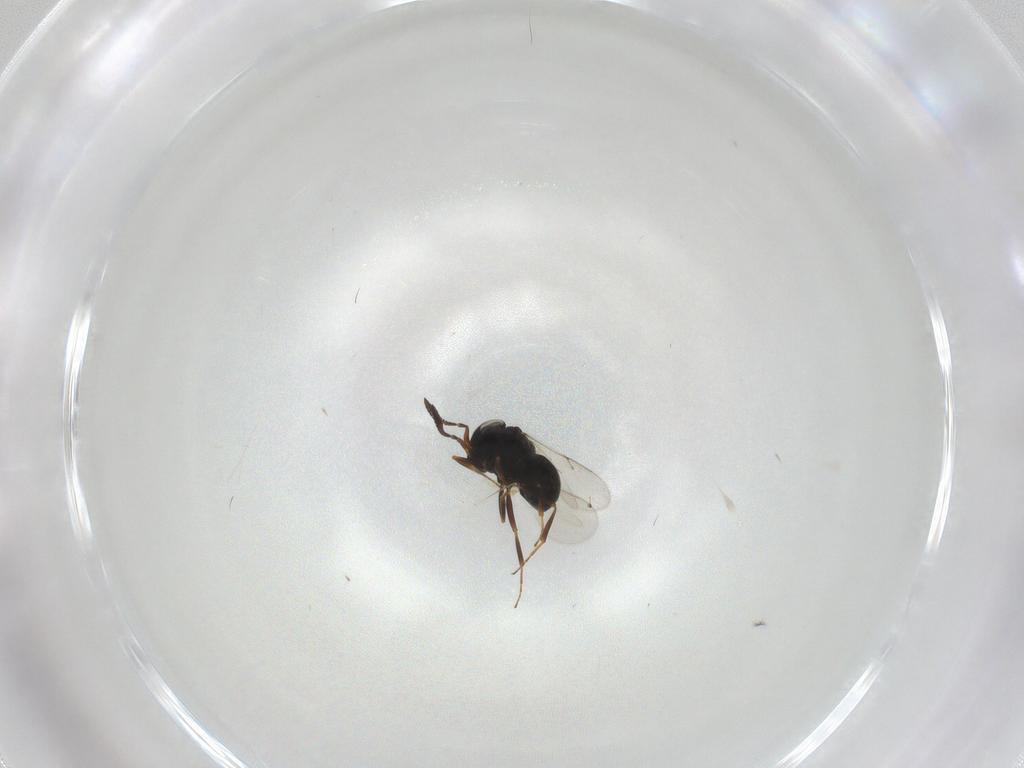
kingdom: Animalia
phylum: Arthropoda
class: Insecta
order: Hymenoptera
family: Scelionidae
